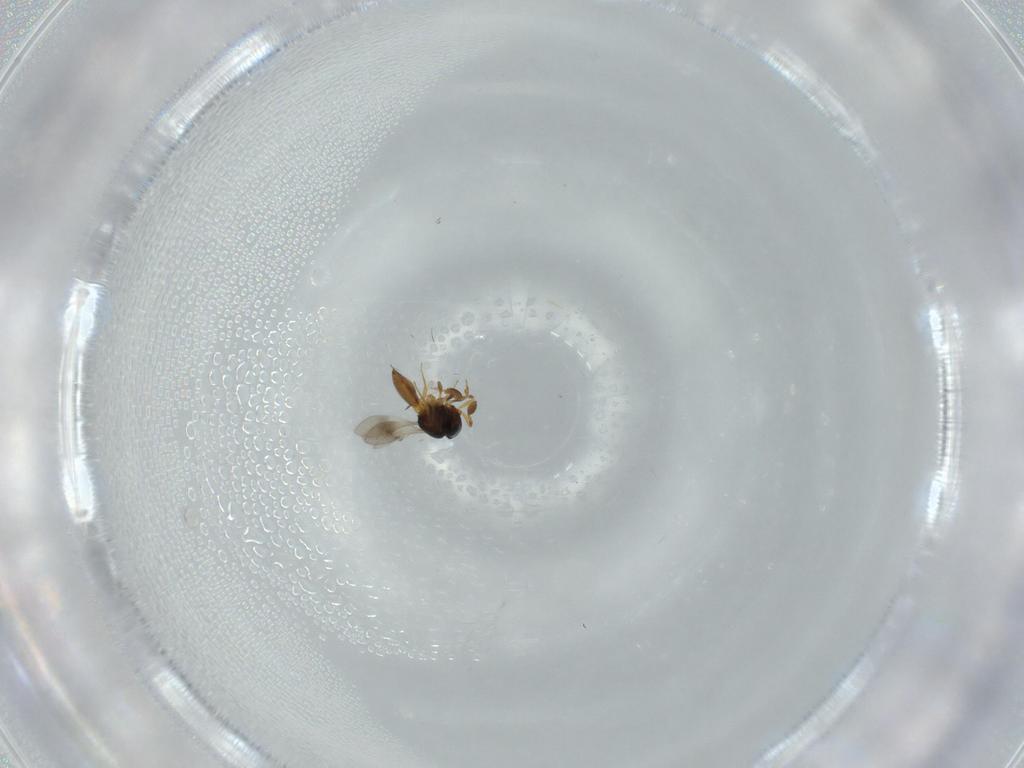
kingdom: Animalia
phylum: Arthropoda
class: Insecta
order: Hymenoptera
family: Scelionidae
